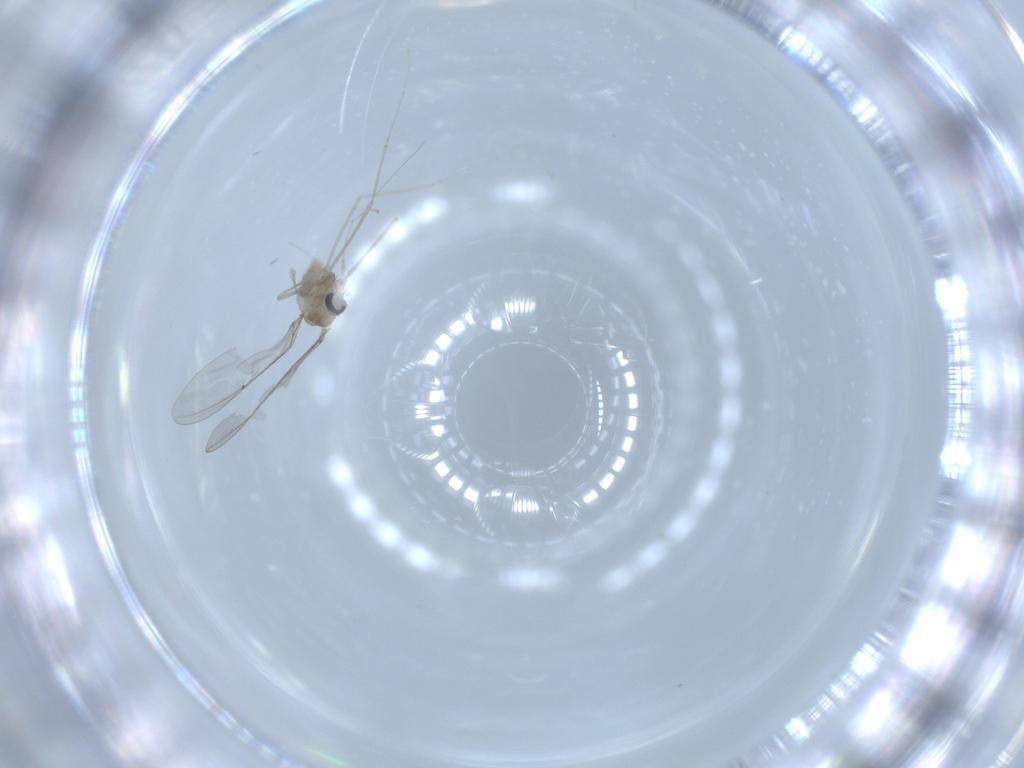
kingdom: Animalia
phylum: Arthropoda
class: Insecta
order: Diptera
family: Cecidomyiidae
